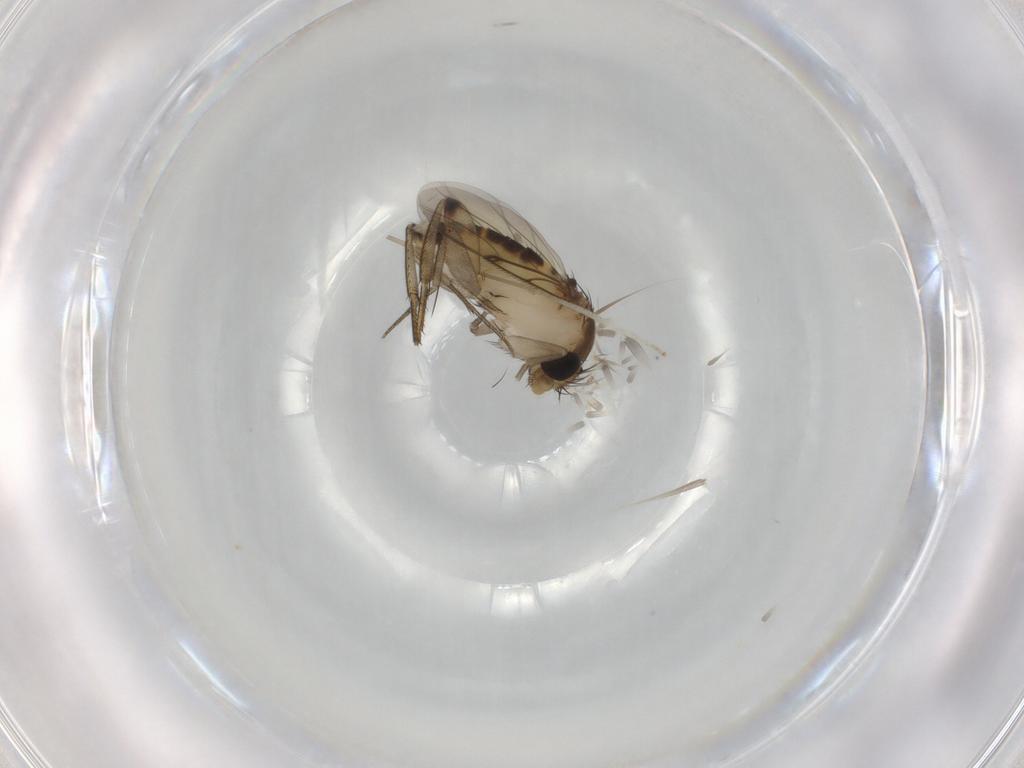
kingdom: Animalia
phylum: Arthropoda
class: Insecta
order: Diptera
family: Phoridae
